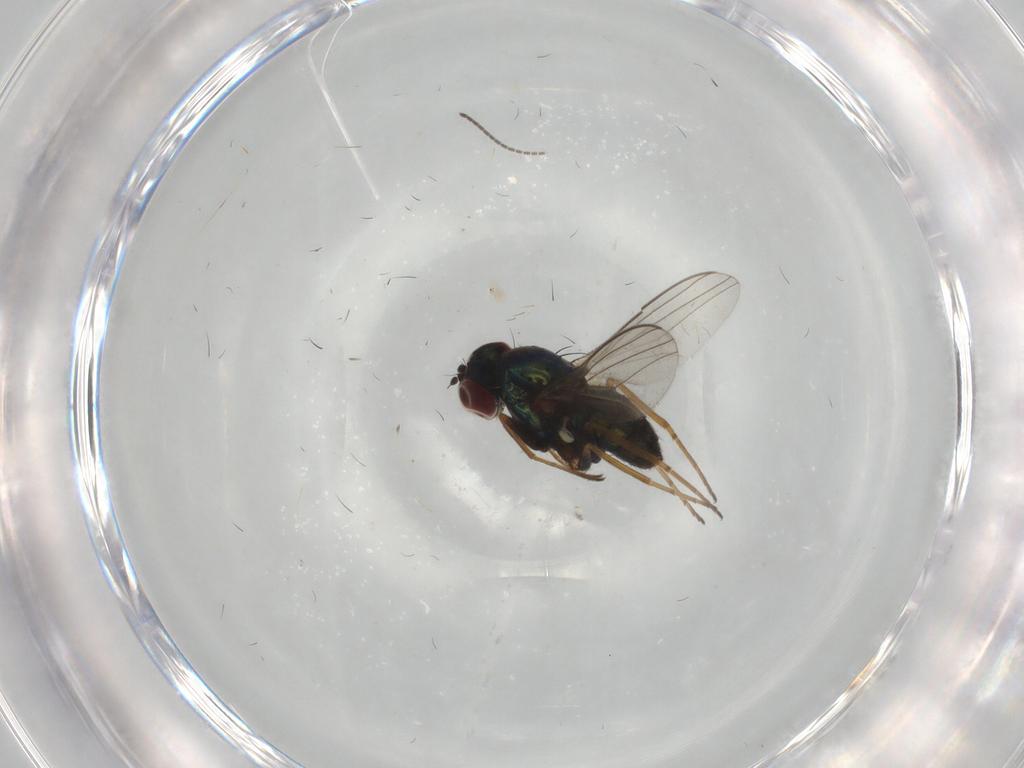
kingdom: Animalia
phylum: Arthropoda
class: Insecta
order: Diptera
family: Dolichopodidae
